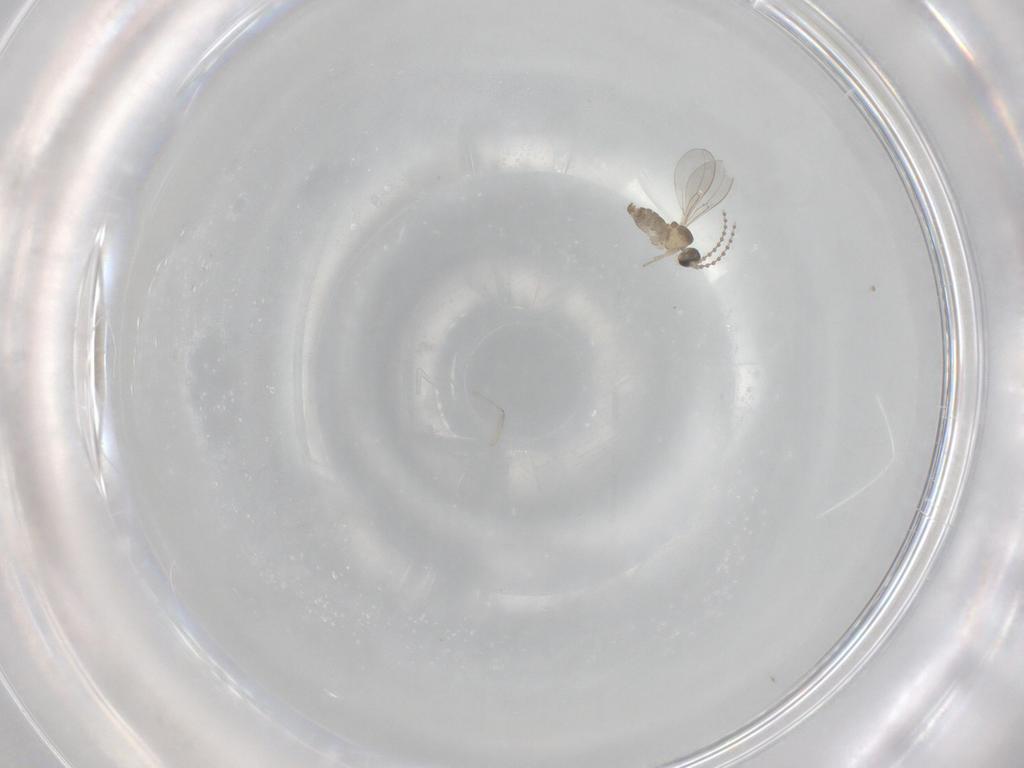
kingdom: Animalia
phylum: Arthropoda
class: Insecta
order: Diptera
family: Cecidomyiidae
